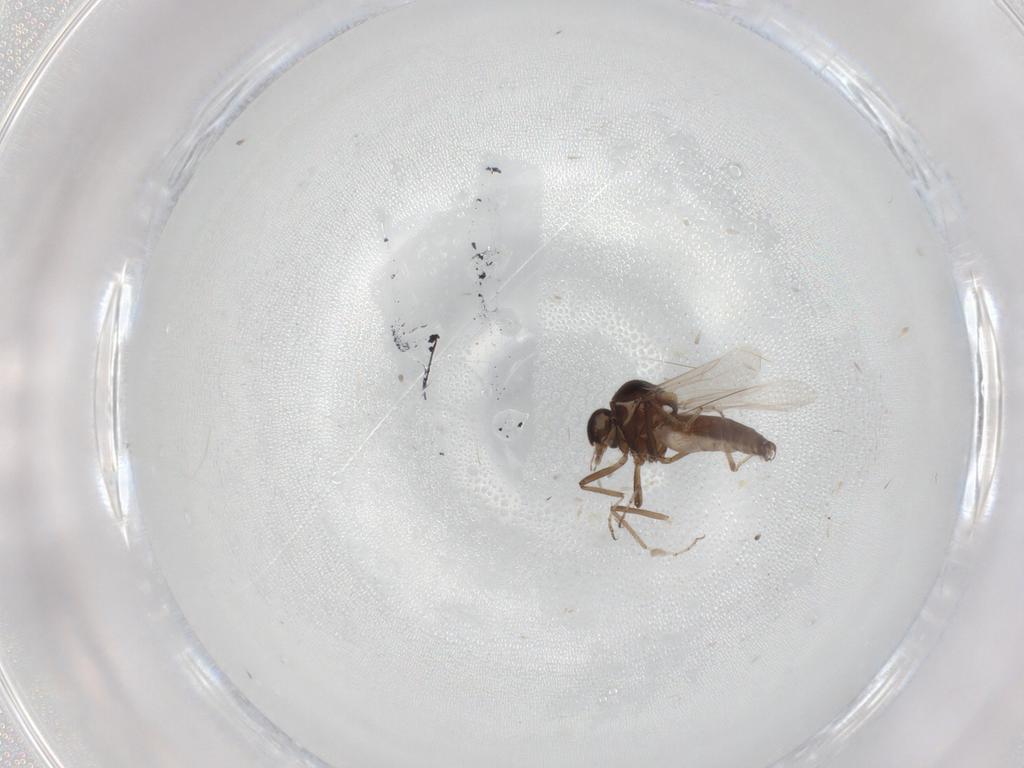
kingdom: Animalia
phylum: Arthropoda
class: Insecta
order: Diptera
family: Ceratopogonidae
